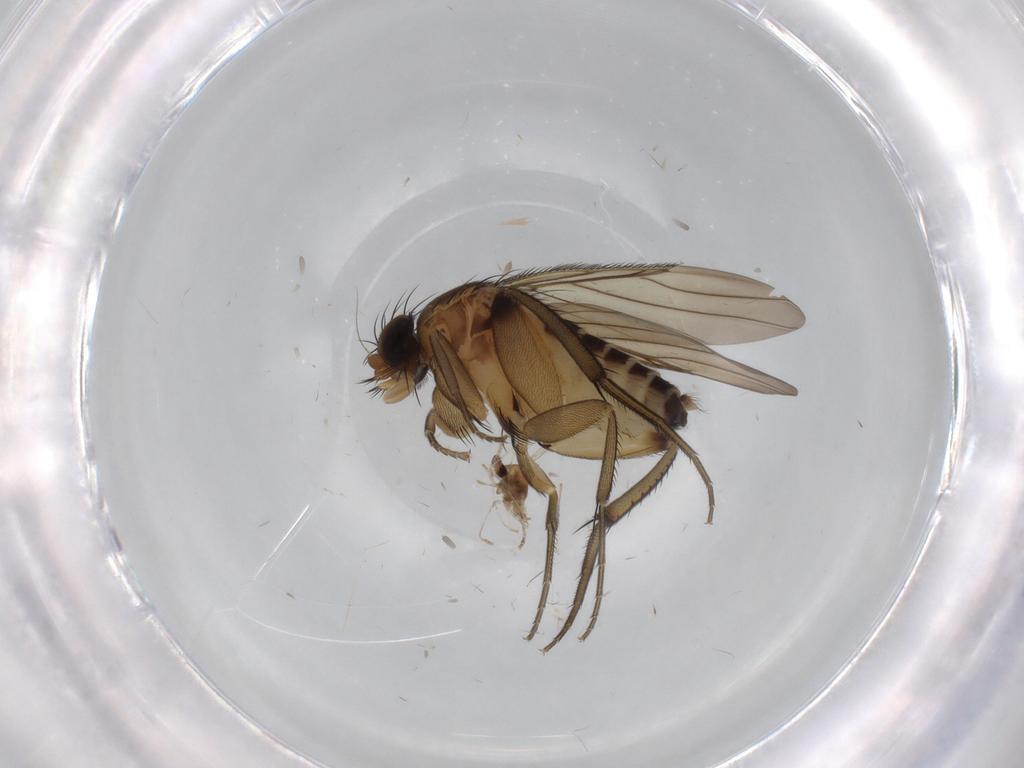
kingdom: Animalia
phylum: Arthropoda
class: Insecta
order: Diptera
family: Cecidomyiidae
